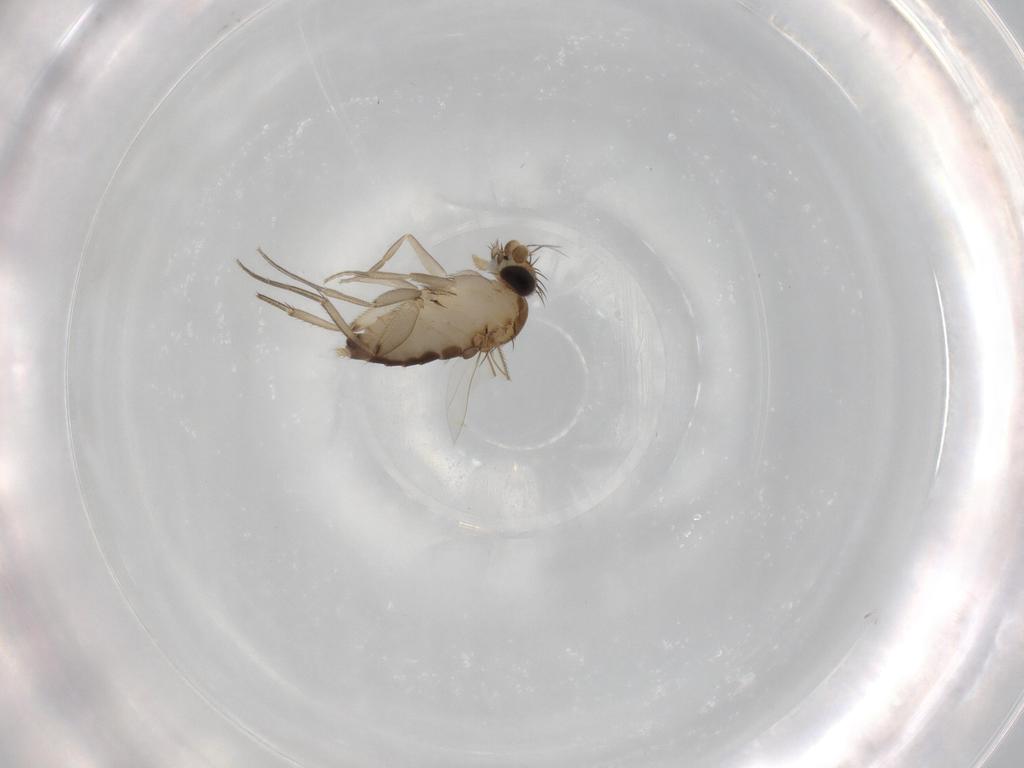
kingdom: Animalia
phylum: Arthropoda
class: Insecta
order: Diptera
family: Phoridae
